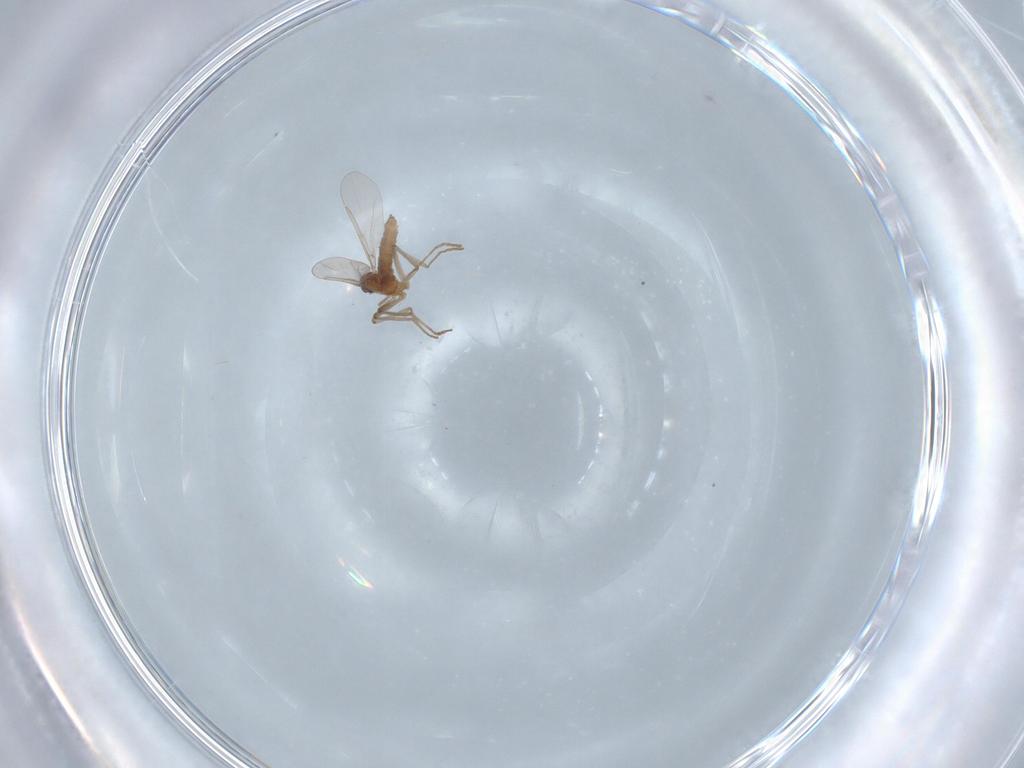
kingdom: Animalia
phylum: Arthropoda
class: Insecta
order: Diptera
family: Cecidomyiidae
